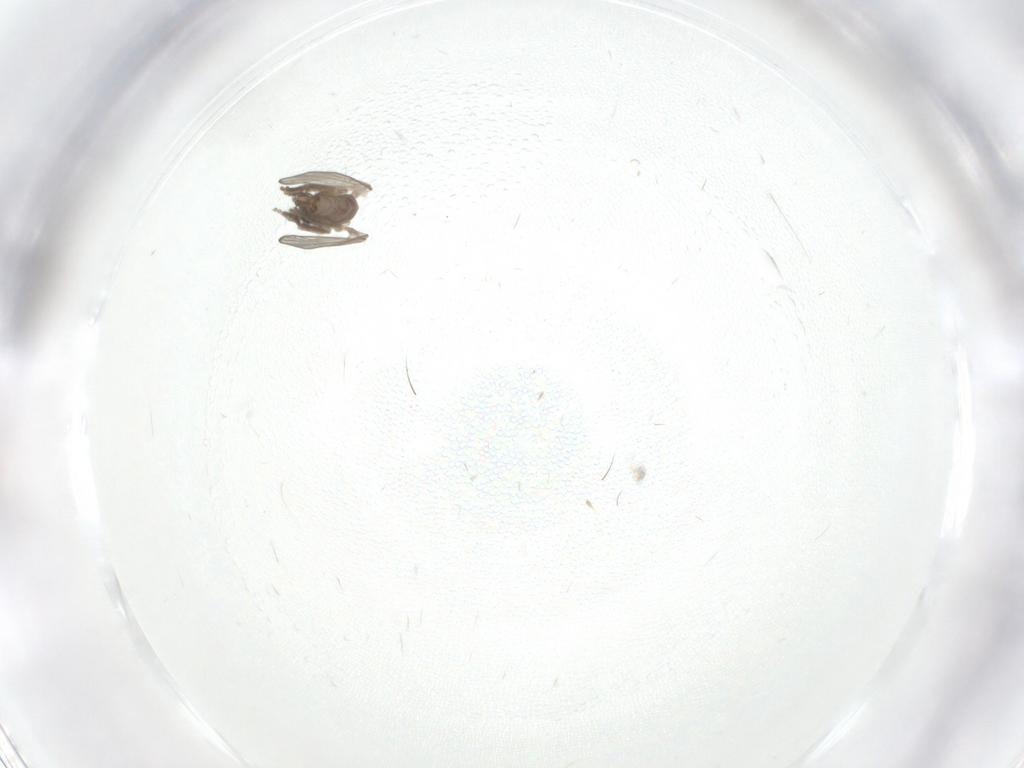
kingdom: Animalia
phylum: Arthropoda
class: Insecta
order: Diptera
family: Psychodidae
